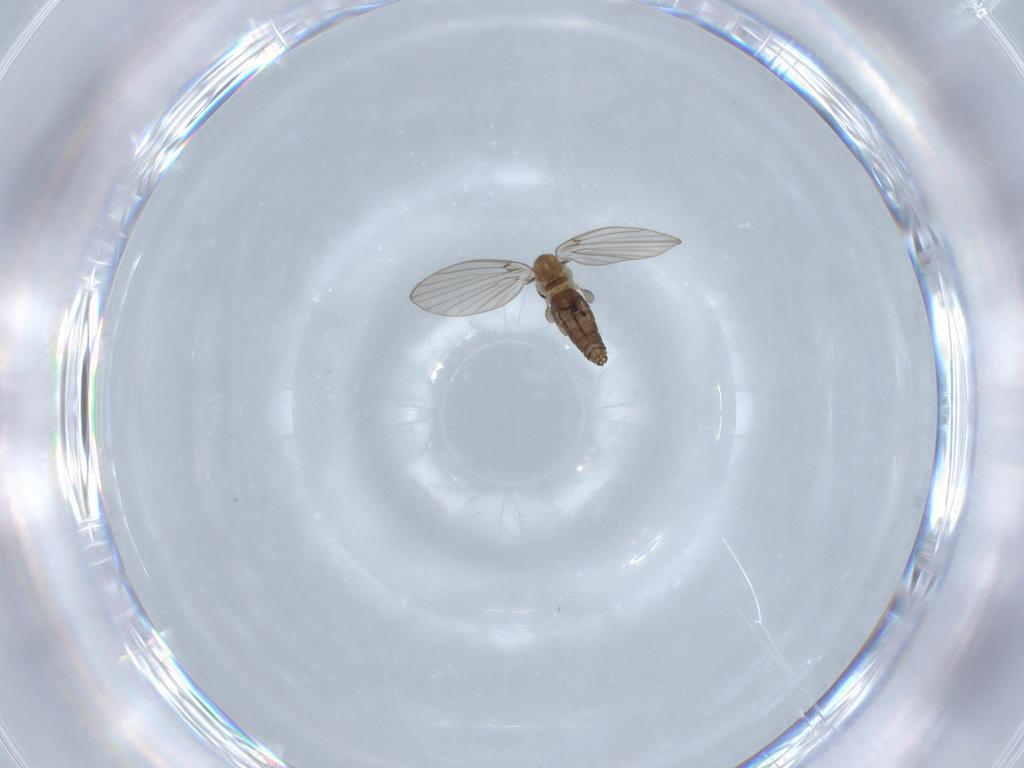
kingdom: Animalia
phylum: Arthropoda
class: Insecta
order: Diptera
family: Psychodidae
